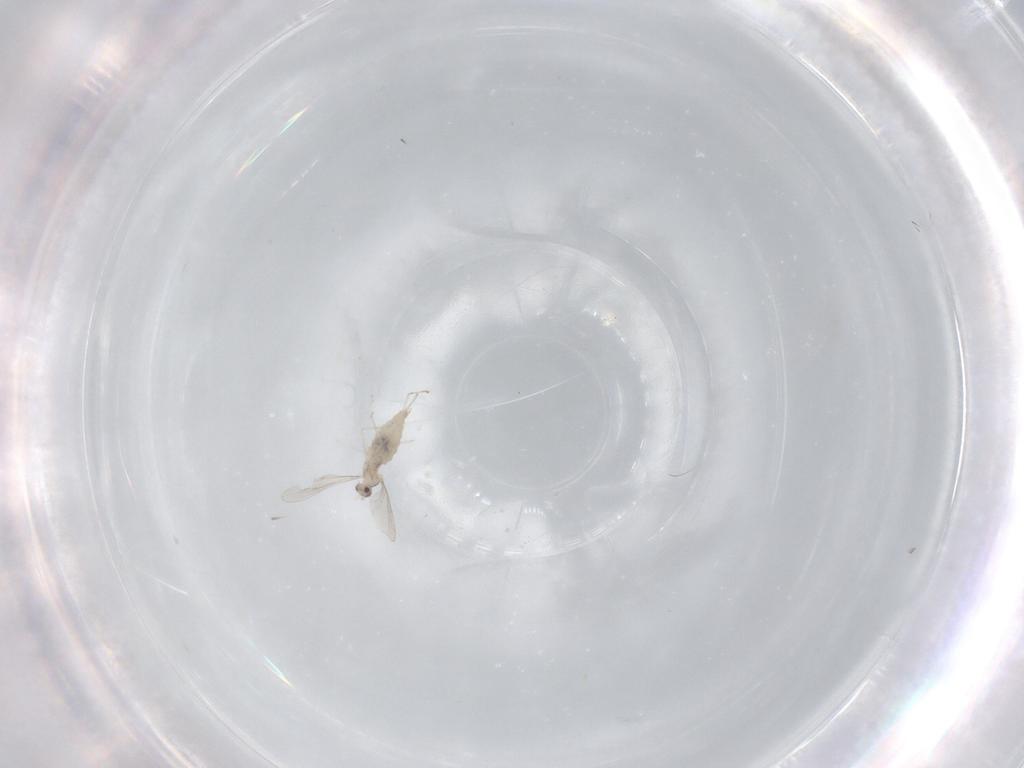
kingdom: Animalia
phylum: Arthropoda
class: Insecta
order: Diptera
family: Cecidomyiidae
